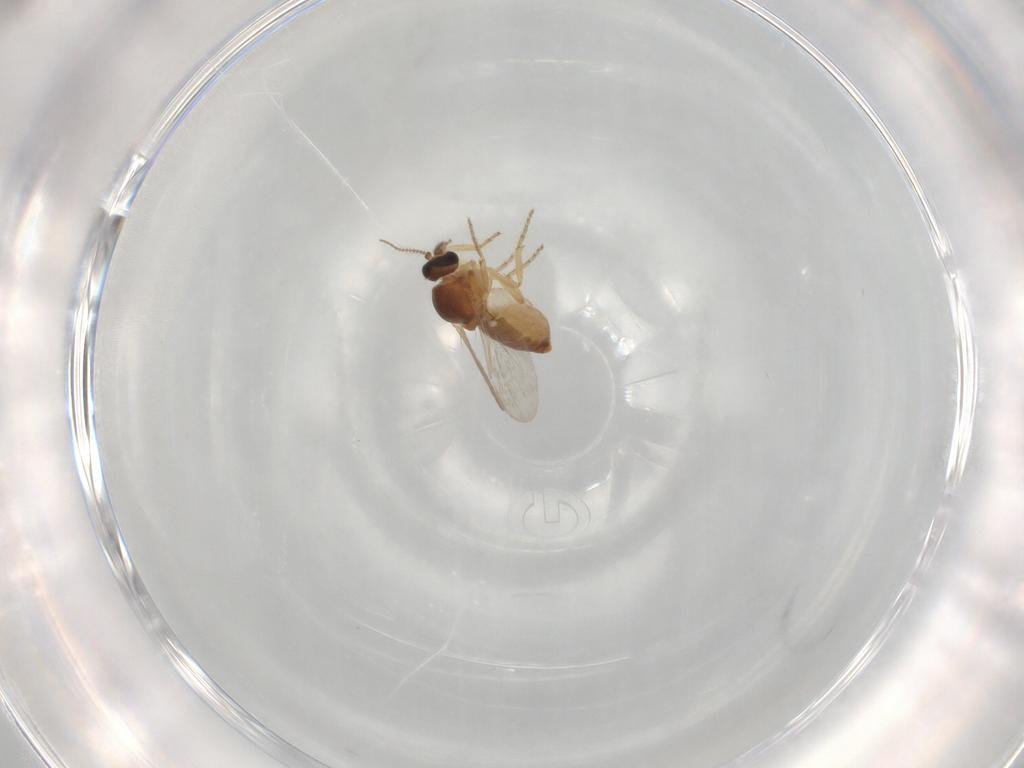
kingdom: Animalia
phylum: Arthropoda
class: Insecta
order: Diptera
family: Ceratopogonidae
